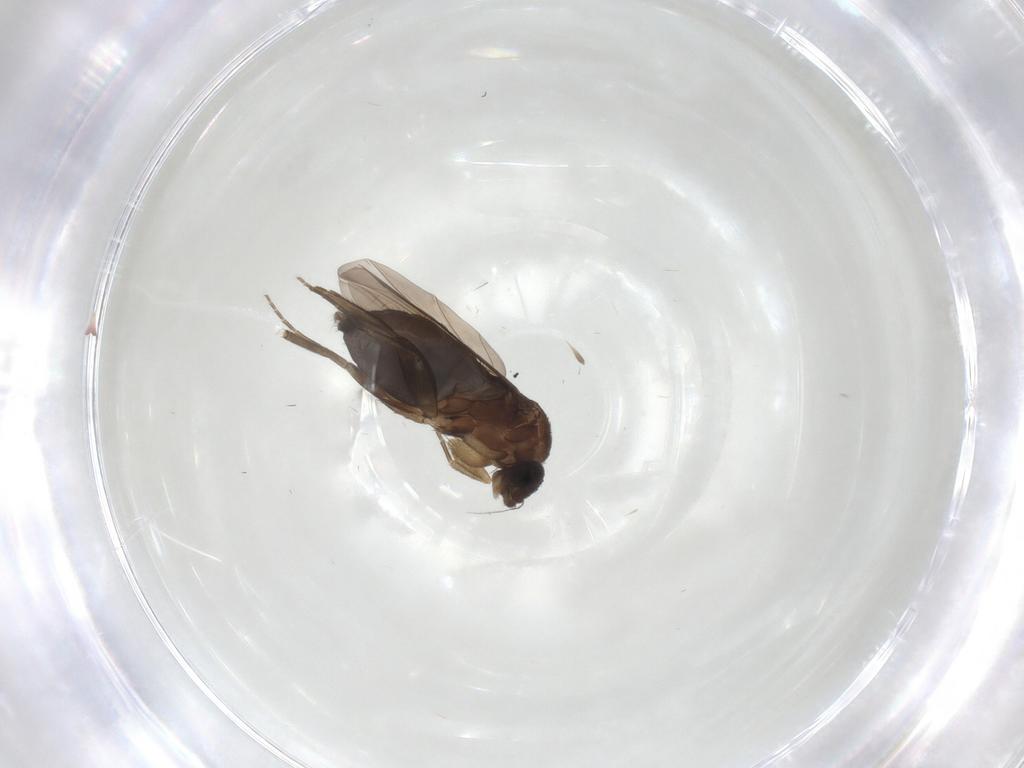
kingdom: Animalia
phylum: Arthropoda
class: Insecta
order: Diptera
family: Phoridae
